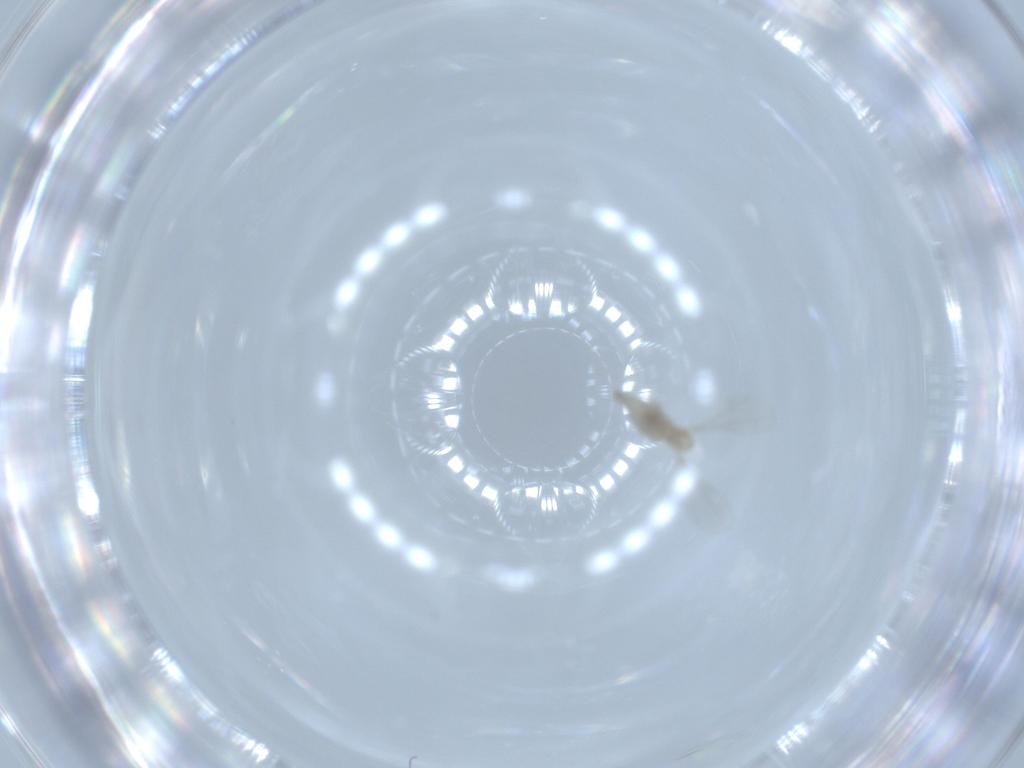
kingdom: Animalia
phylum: Arthropoda
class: Insecta
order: Diptera
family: Cecidomyiidae
